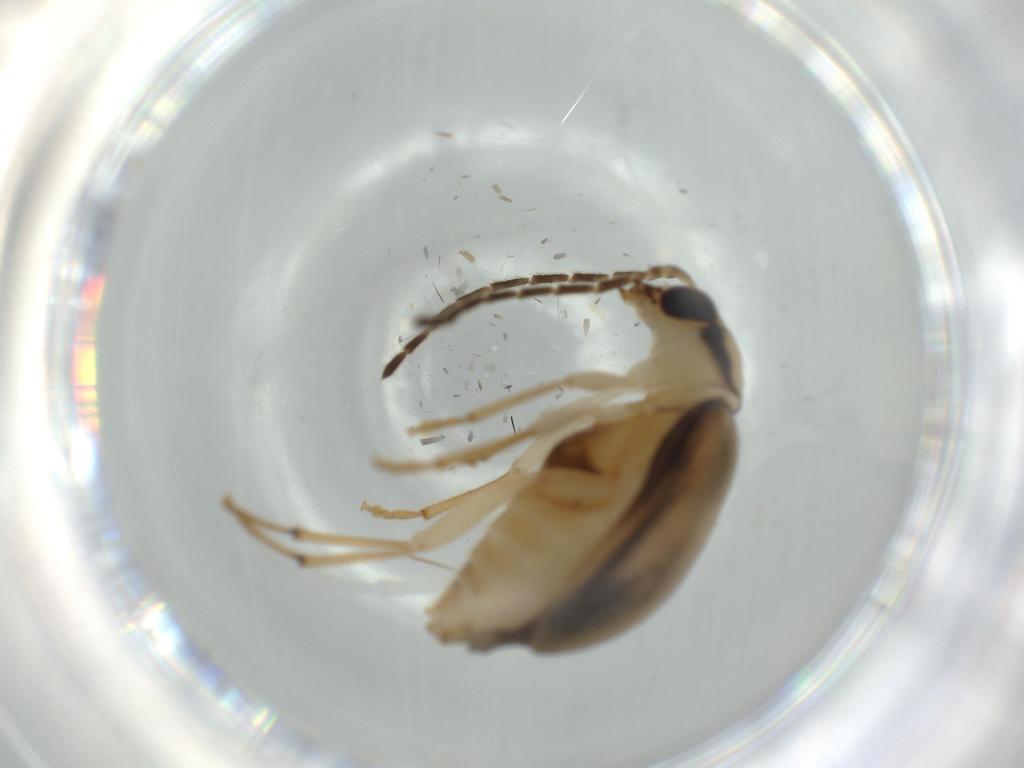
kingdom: Animalia
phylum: Arthropoda
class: Insecta
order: Coleoptera
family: Chrysomelidae
